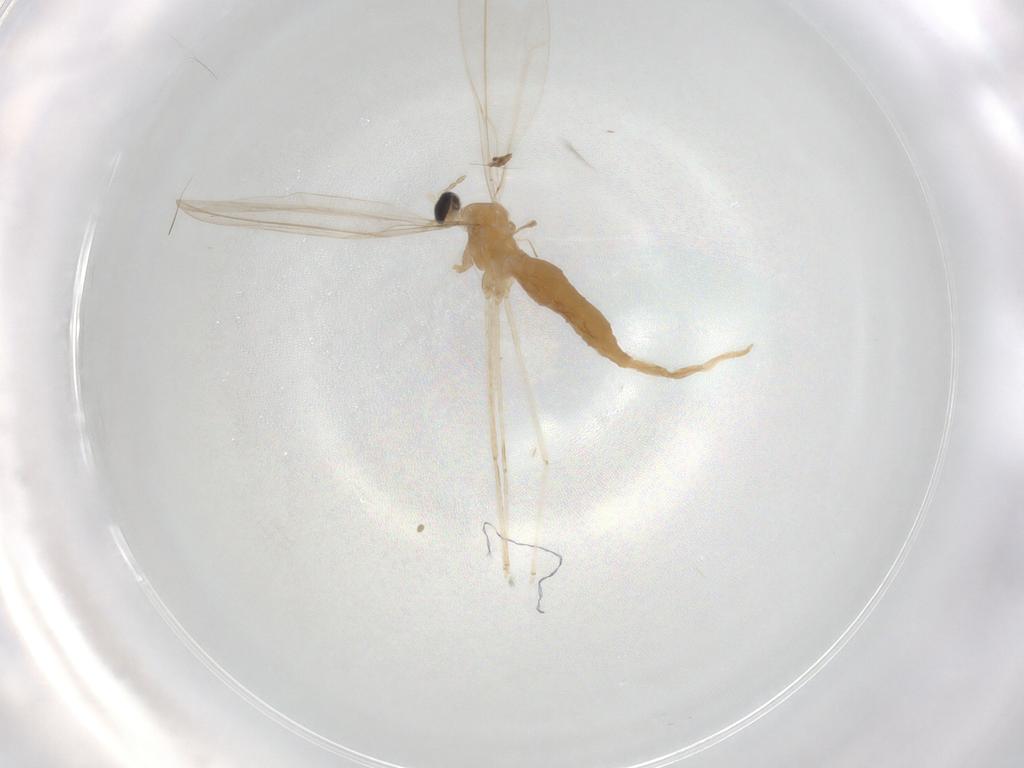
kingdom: Animalia
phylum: Arthropoda
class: Insecta
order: Diptera
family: Cecidomyiidae
